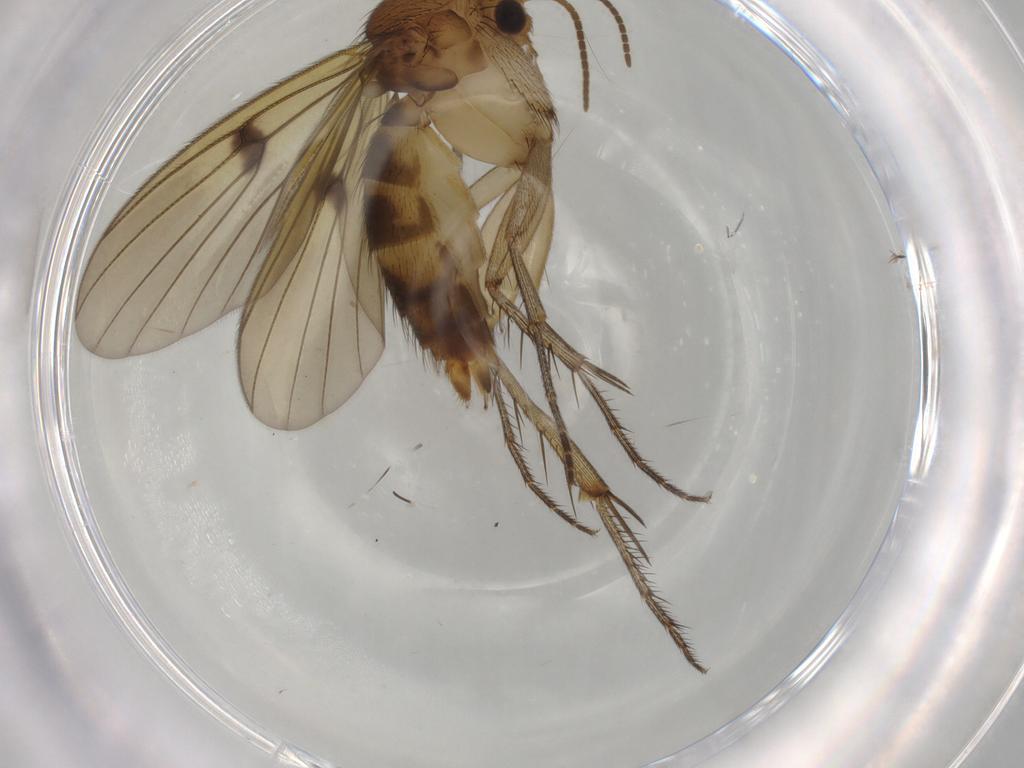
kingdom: Animalia
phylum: Arthropoda
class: Insecta
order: Diptera
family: Mycetophilidae
